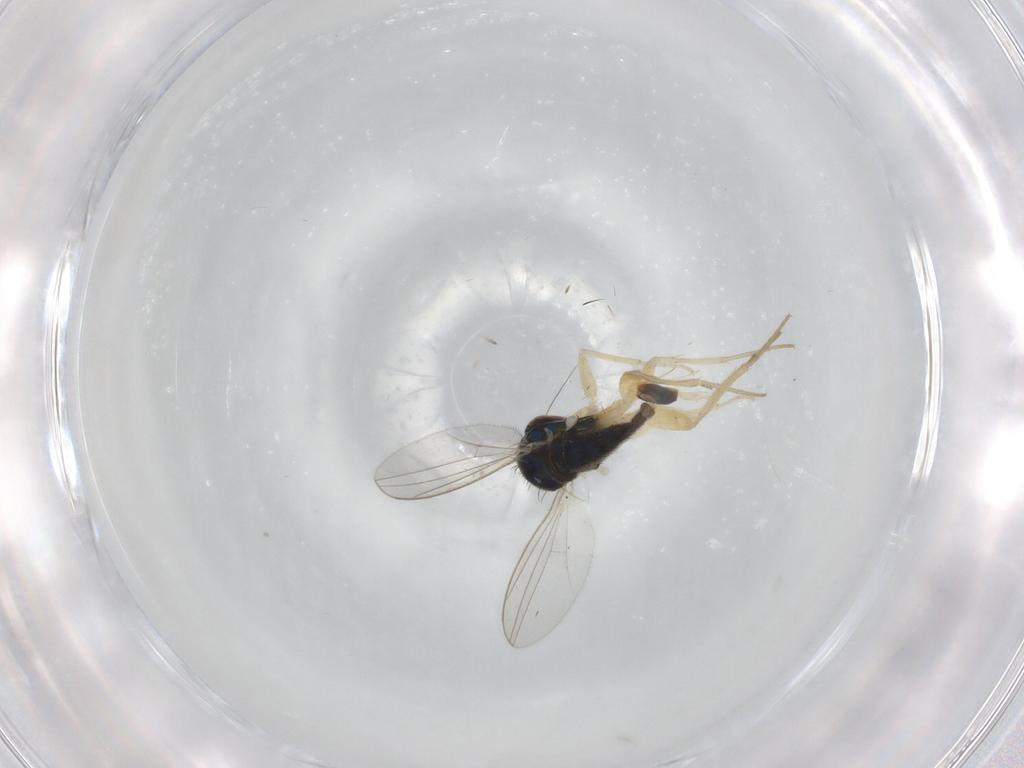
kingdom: Animalia
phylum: Arthropoda
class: Insecta
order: Diptera
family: Dolichopodidae
